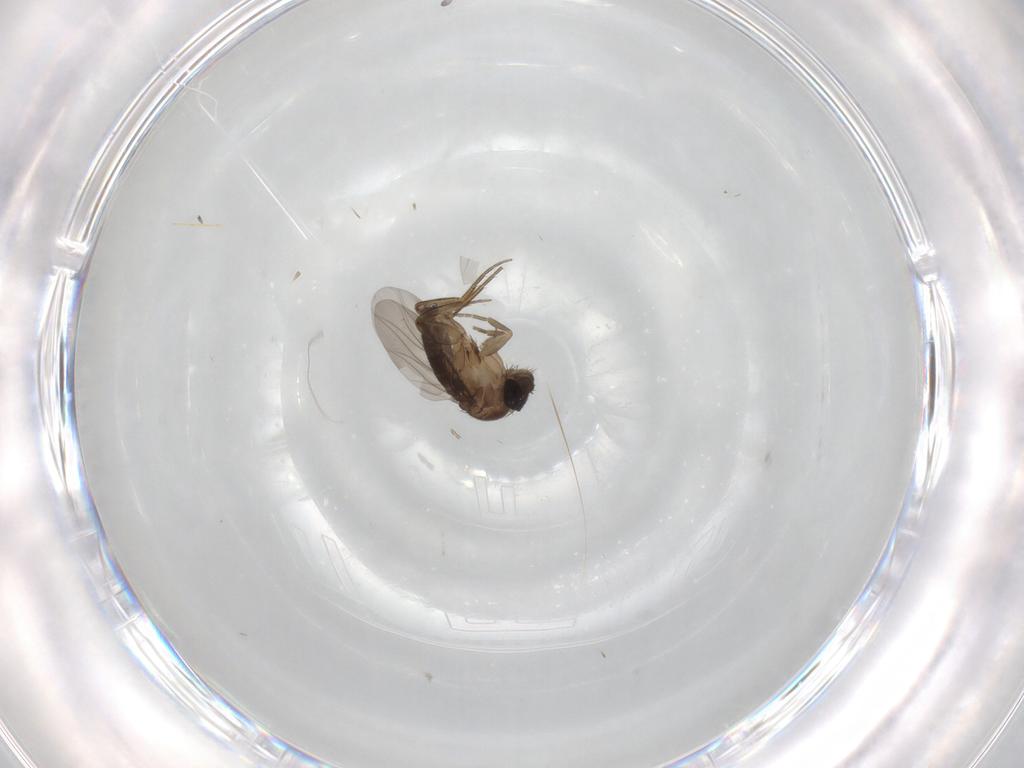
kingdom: Animalia
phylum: Arthropoda
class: Insecta
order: Diptera
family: Phoridae
